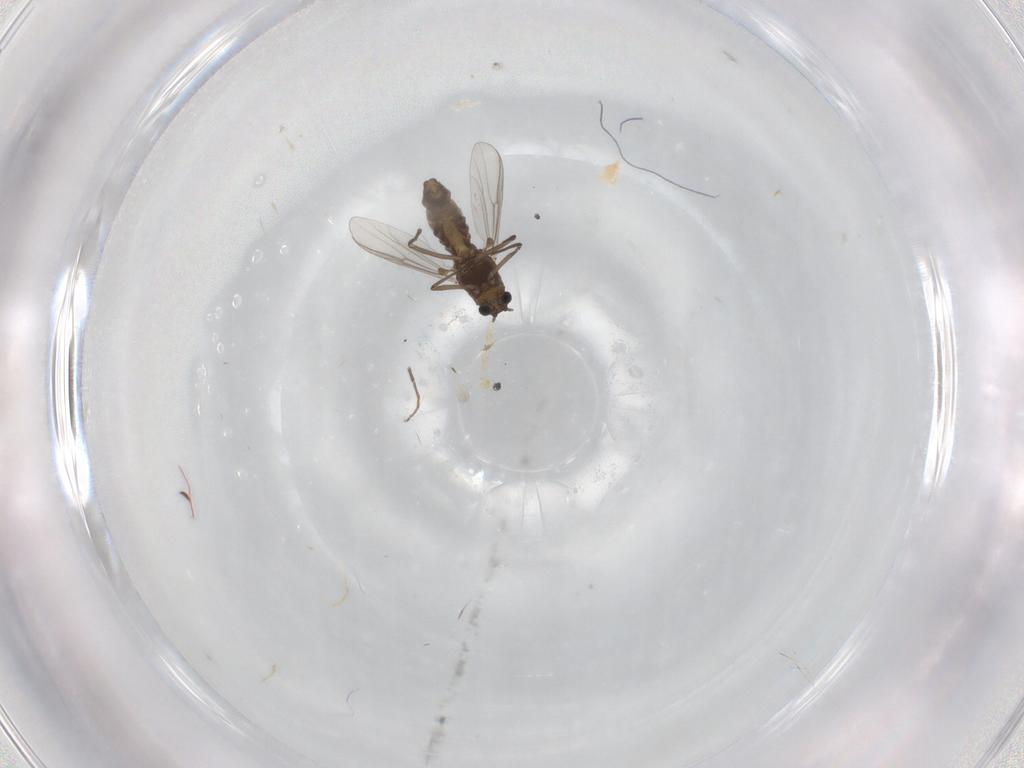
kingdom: Animalia
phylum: Arthropoda
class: Insecta
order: Diptera
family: Chironomidae
